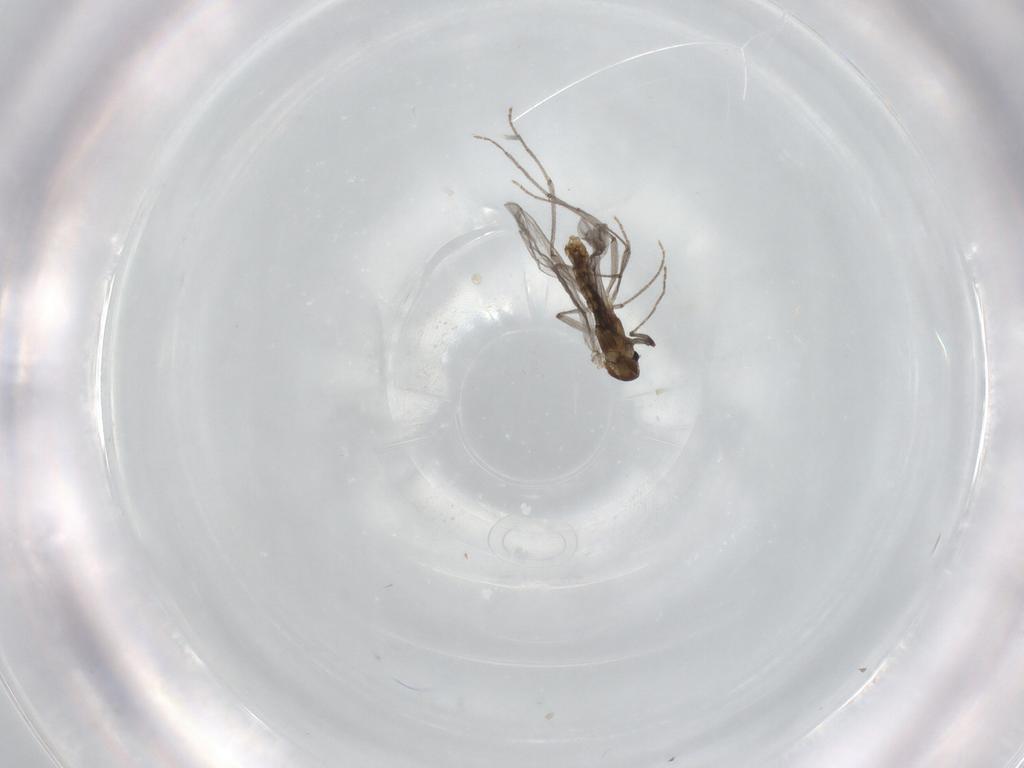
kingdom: Animalia
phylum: Arthropoda
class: Insecta
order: Diptera
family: Chironomidae
